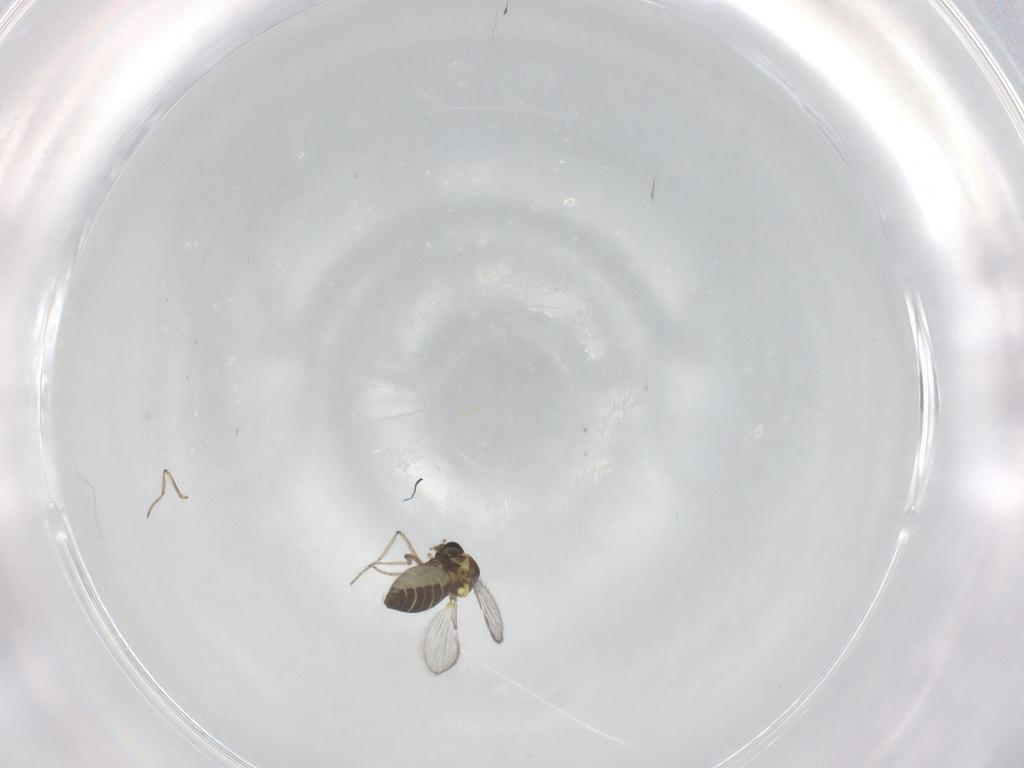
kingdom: Animalia
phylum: Arthropoda
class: Insecta
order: Diptera
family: Ceratopogonidae
